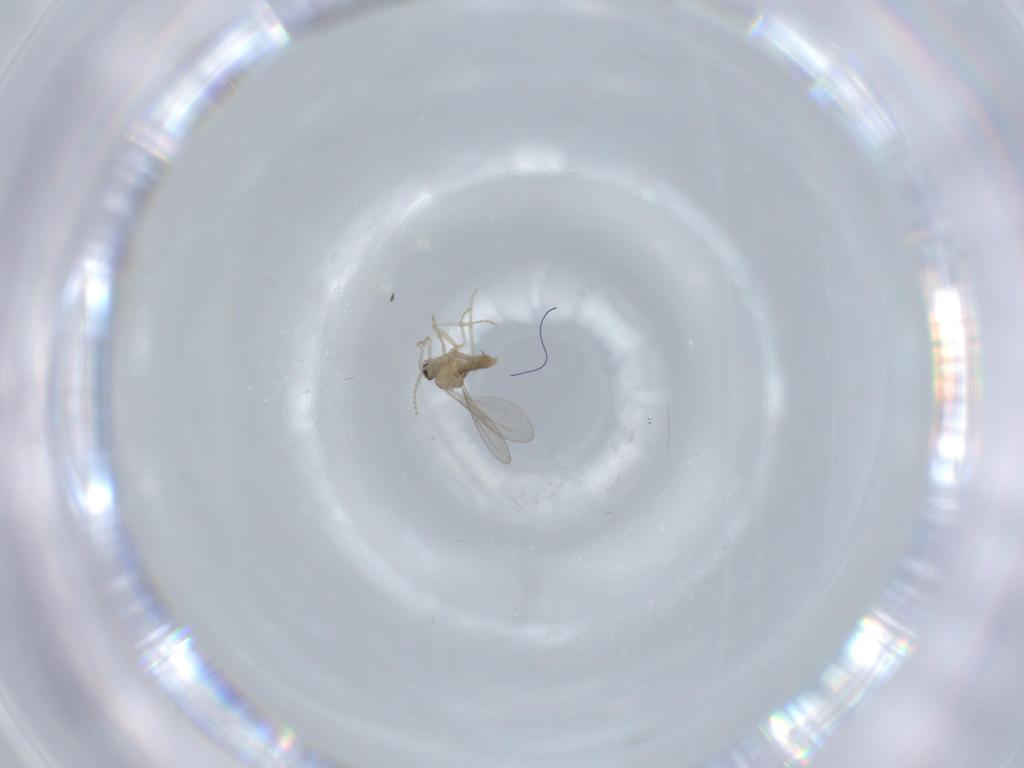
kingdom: Animalia
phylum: Arthropoda
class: Insecta
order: Diptera
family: Cecidomyiidae
